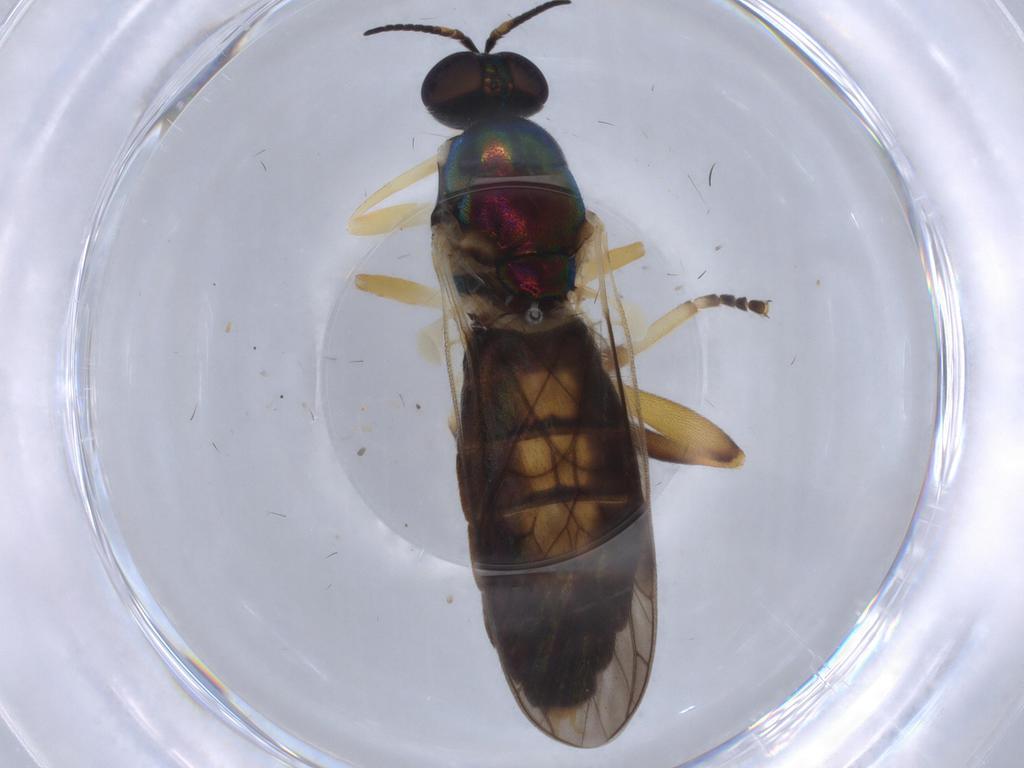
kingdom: Animalia
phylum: Arthropoda
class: Insecta
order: Diptera
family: Stratiomyidae
